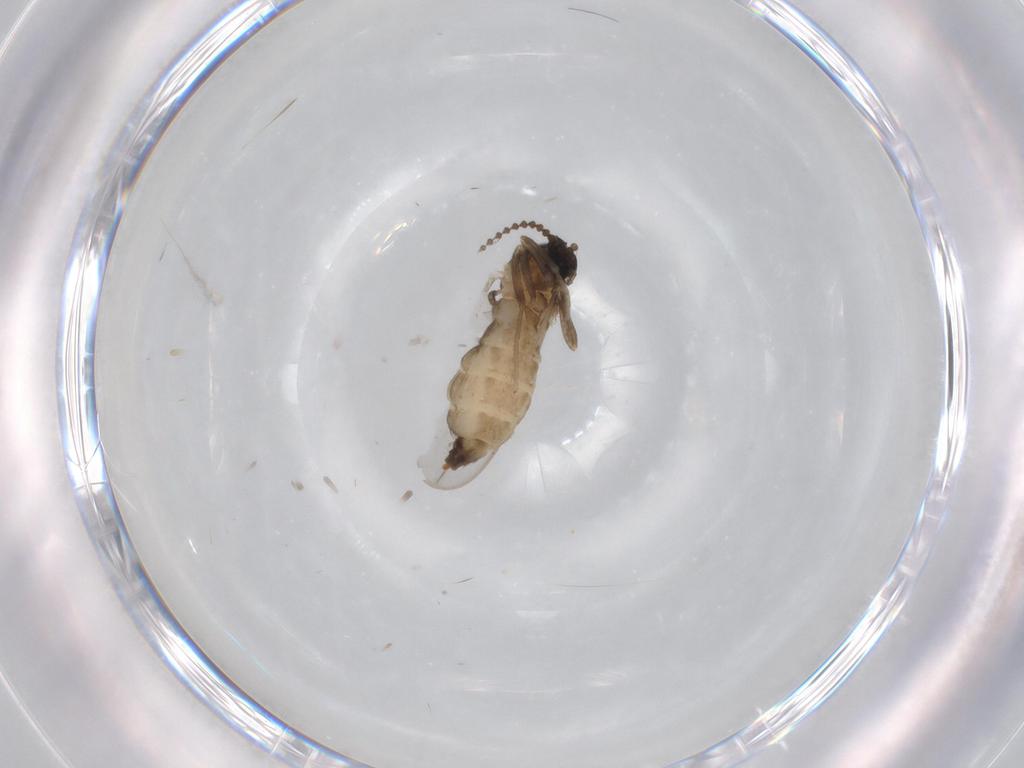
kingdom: Animalia
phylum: Arthropoda
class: Insecta
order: Diptera
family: Cecidomyiidae
